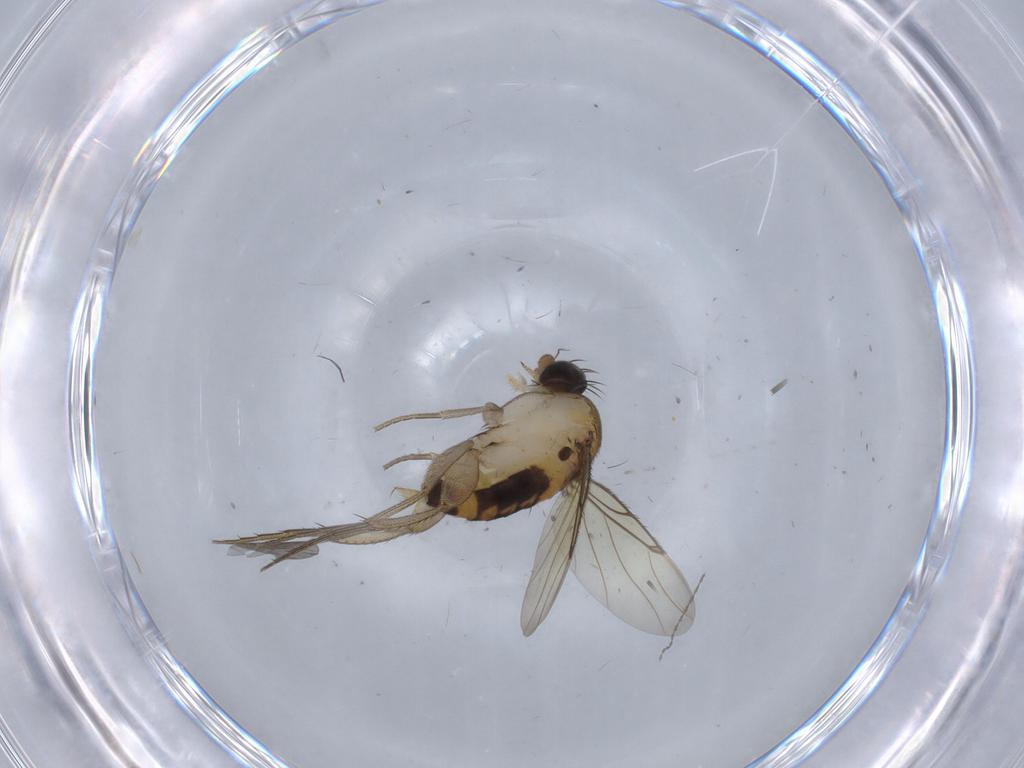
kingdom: Animalia
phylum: Arthropoda
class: Insecta
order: Diptera
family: Chironomidae
